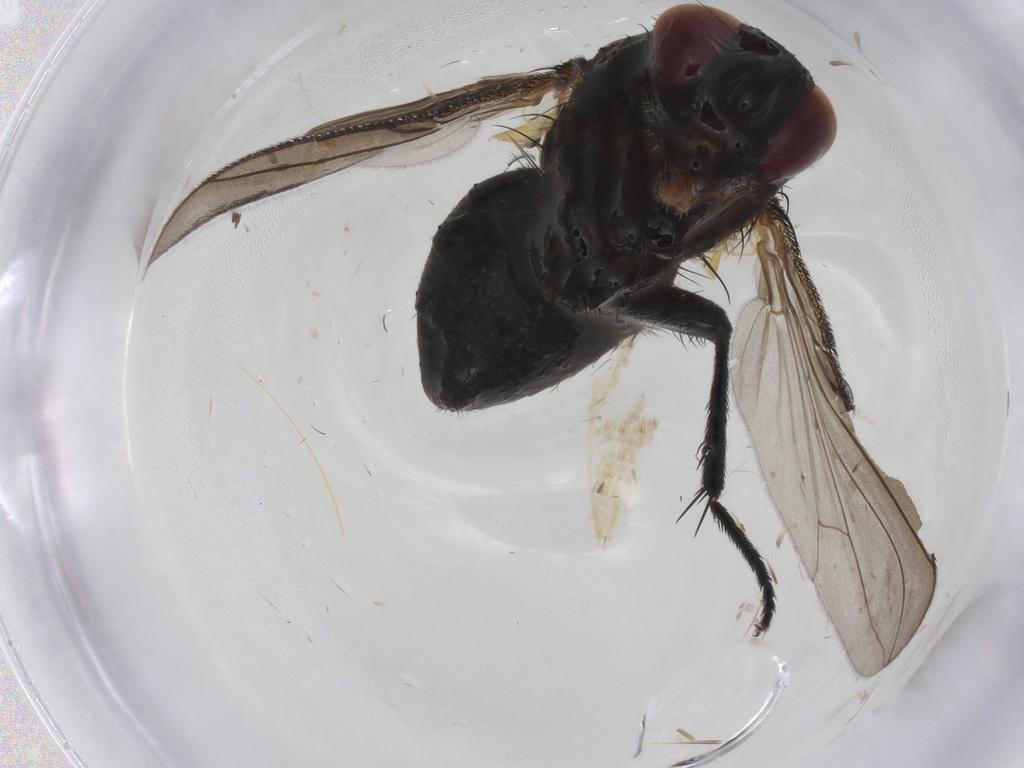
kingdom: Animalia
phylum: Arthropoda
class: Insecta
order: Diptera
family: Tachinidae
